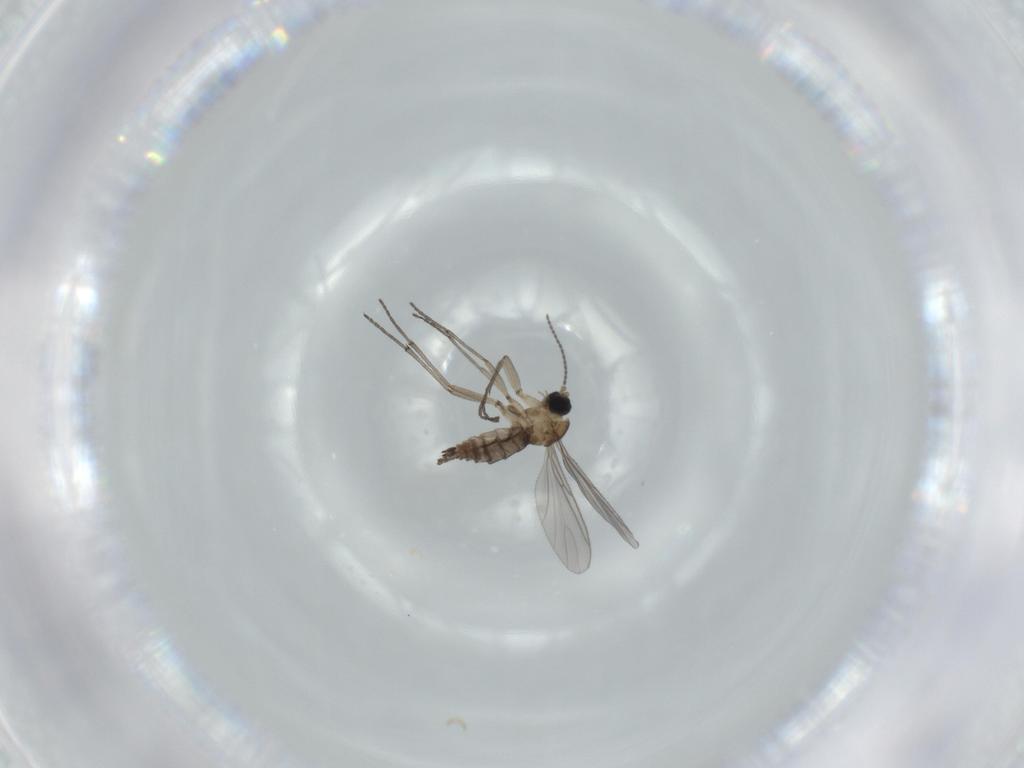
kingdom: Animalia
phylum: Arthropoda
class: Insecta
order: Diptera
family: Sciaridae
